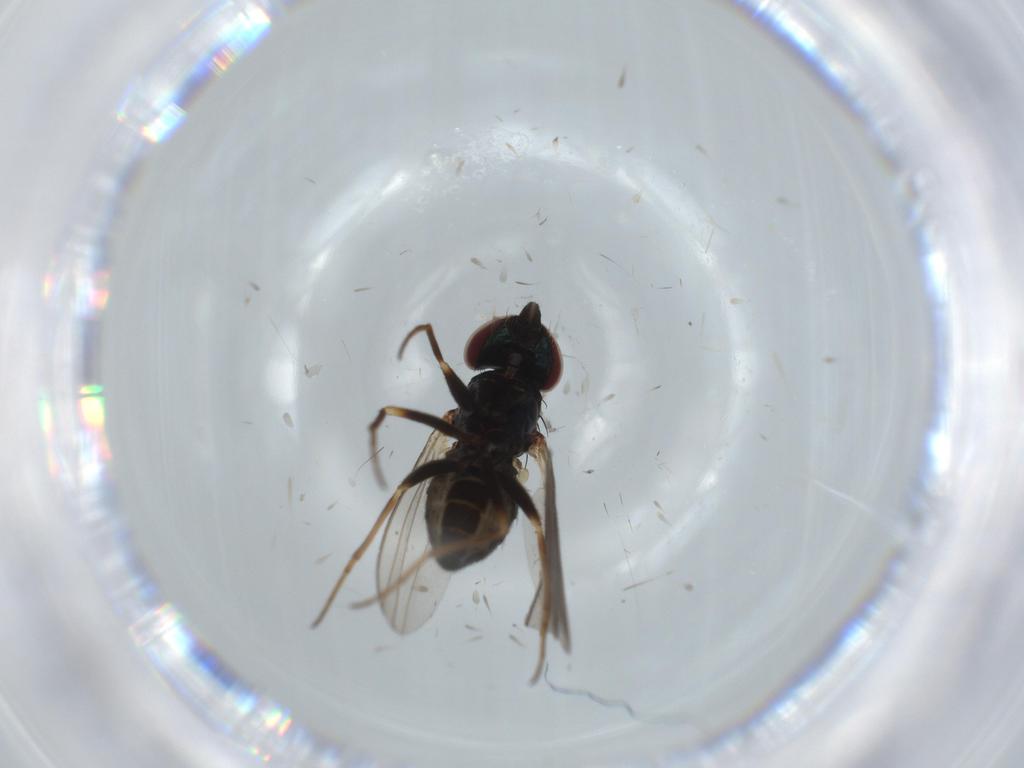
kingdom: Animalia
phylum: Arthropoda
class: Insecta
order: Diptera
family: Dolichopodidae
